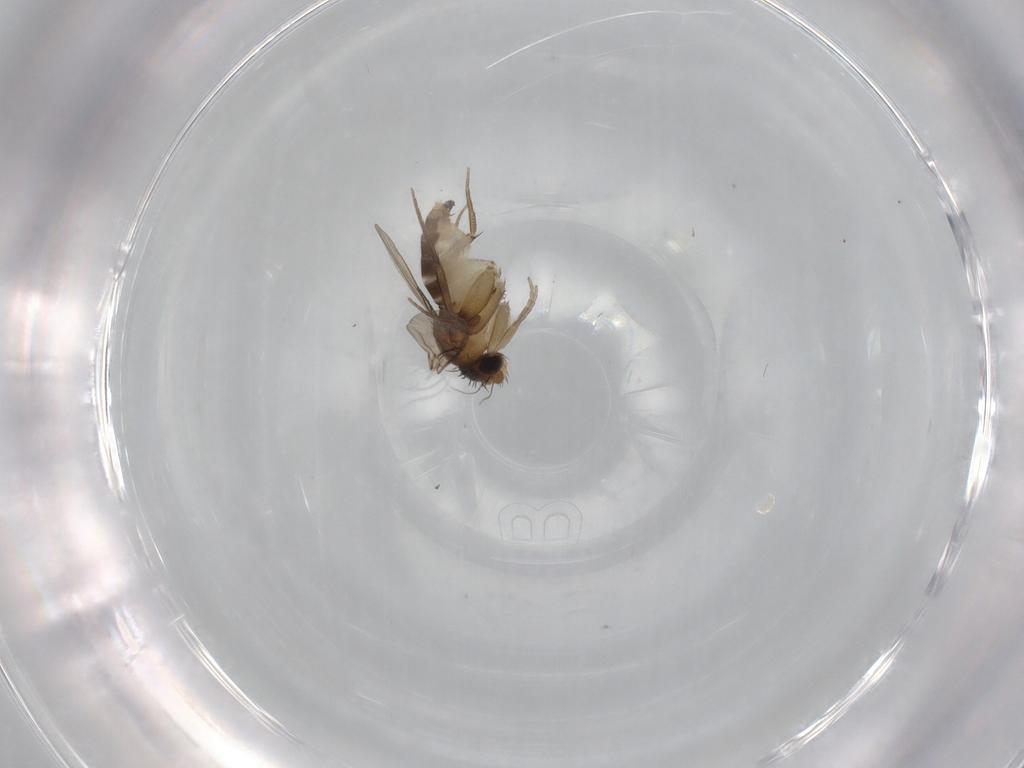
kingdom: Animalia
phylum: Arthropoda
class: Insecta
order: Diptera
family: Phoridae
